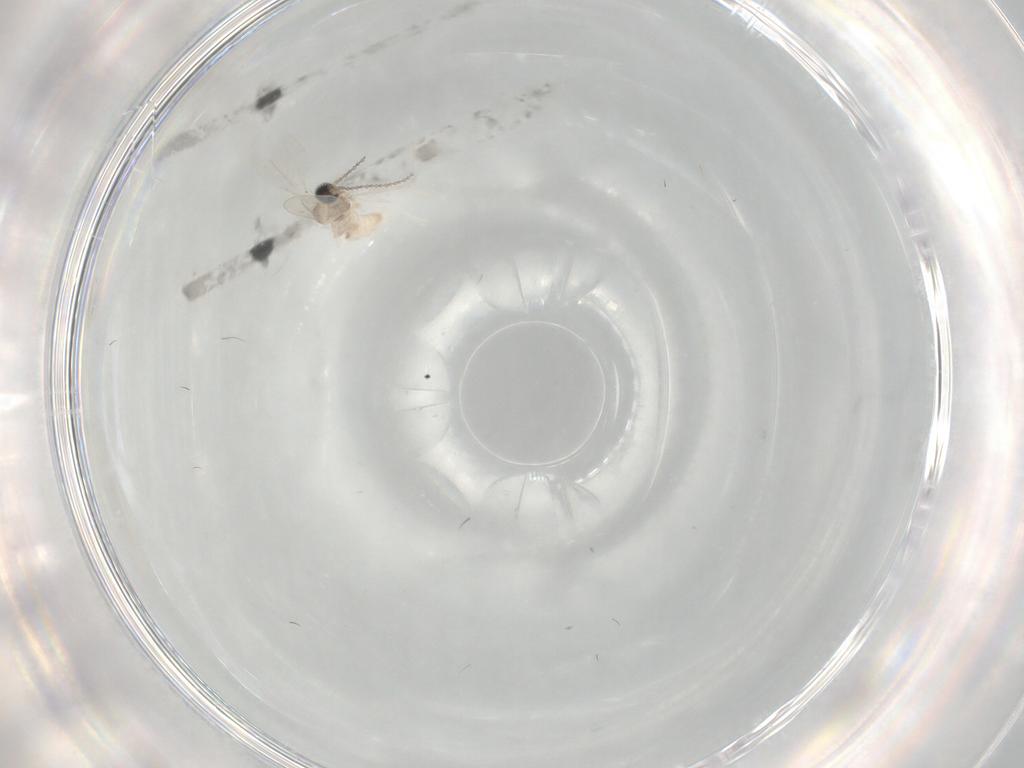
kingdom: Animalia
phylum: Arthropoda
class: Insecta
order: Diptera
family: Cecidomyiidae
